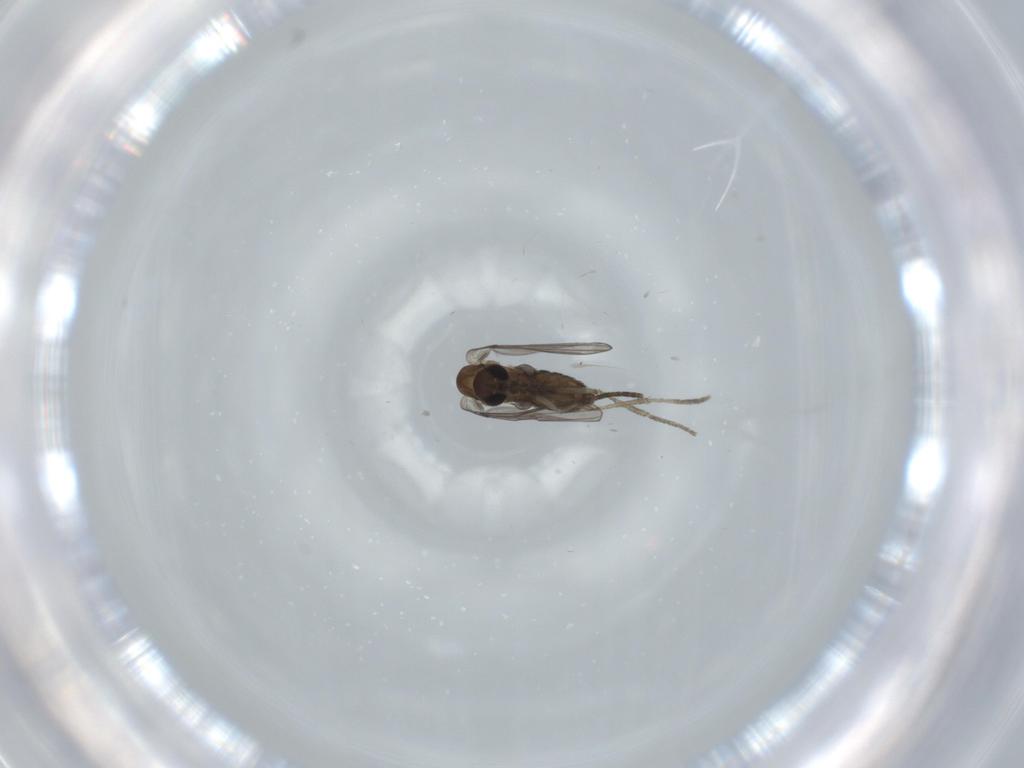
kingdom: Animalia
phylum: Arthropoda
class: Insecta
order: Diptera
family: Psychodidae
